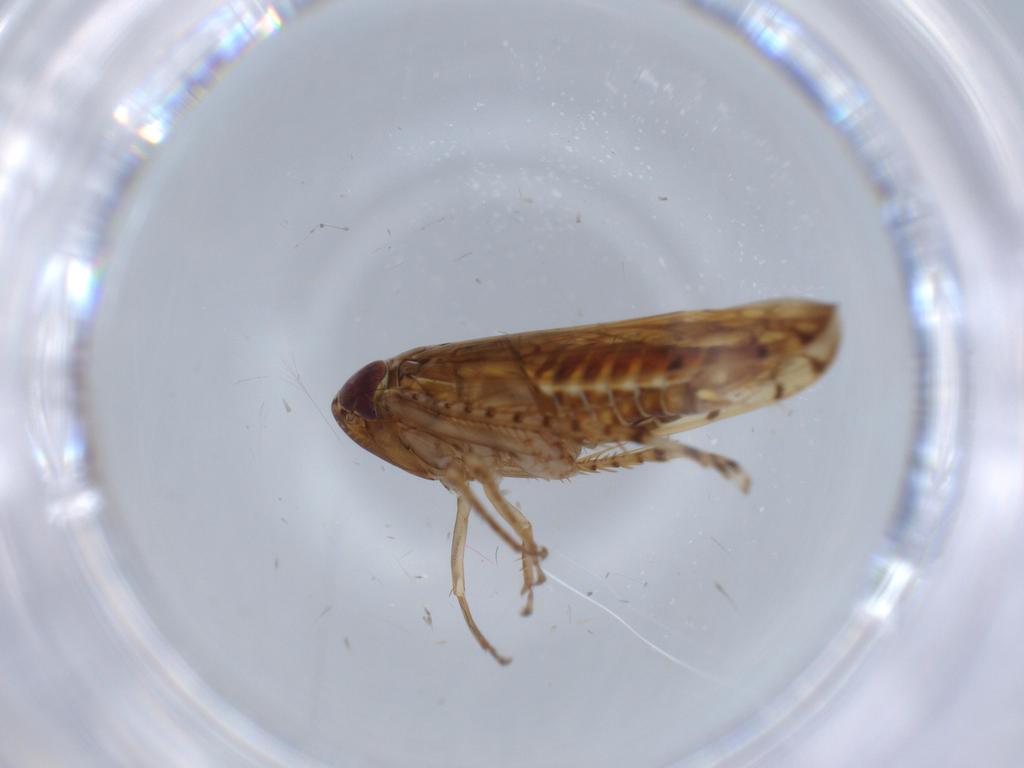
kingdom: Animalia
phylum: Arthropoda
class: Insecta
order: Hemiptera
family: Cicadellidae
